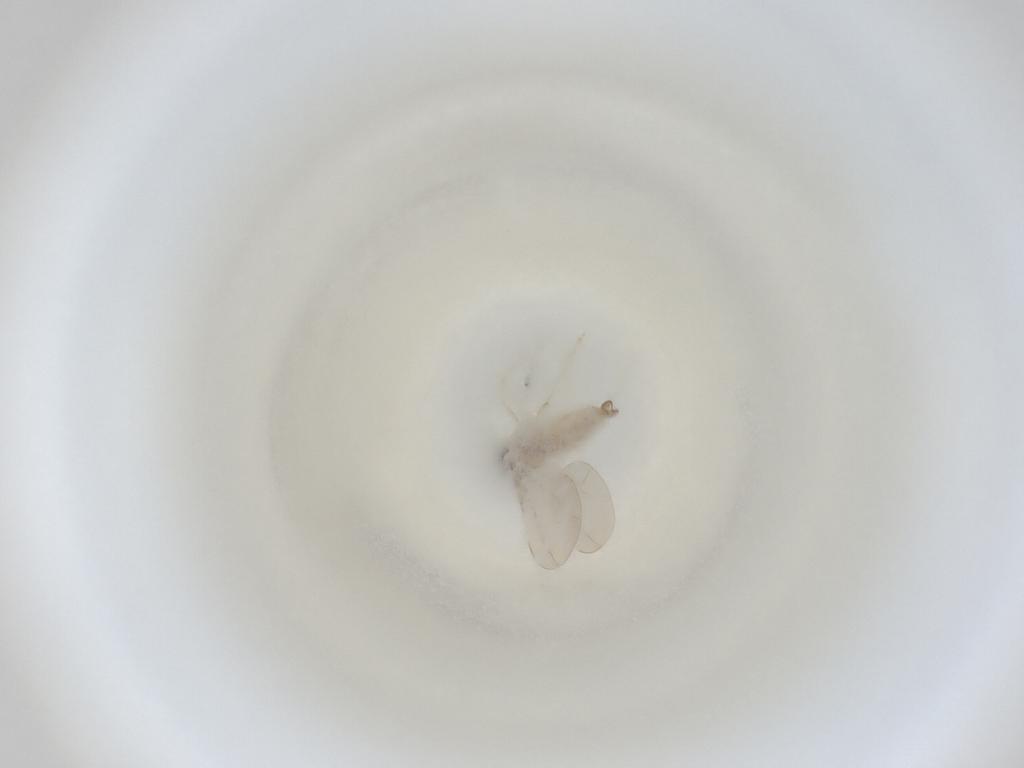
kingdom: Animalia
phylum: Arthropoda
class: Insecta
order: Diptera
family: Cecidomyiidae
